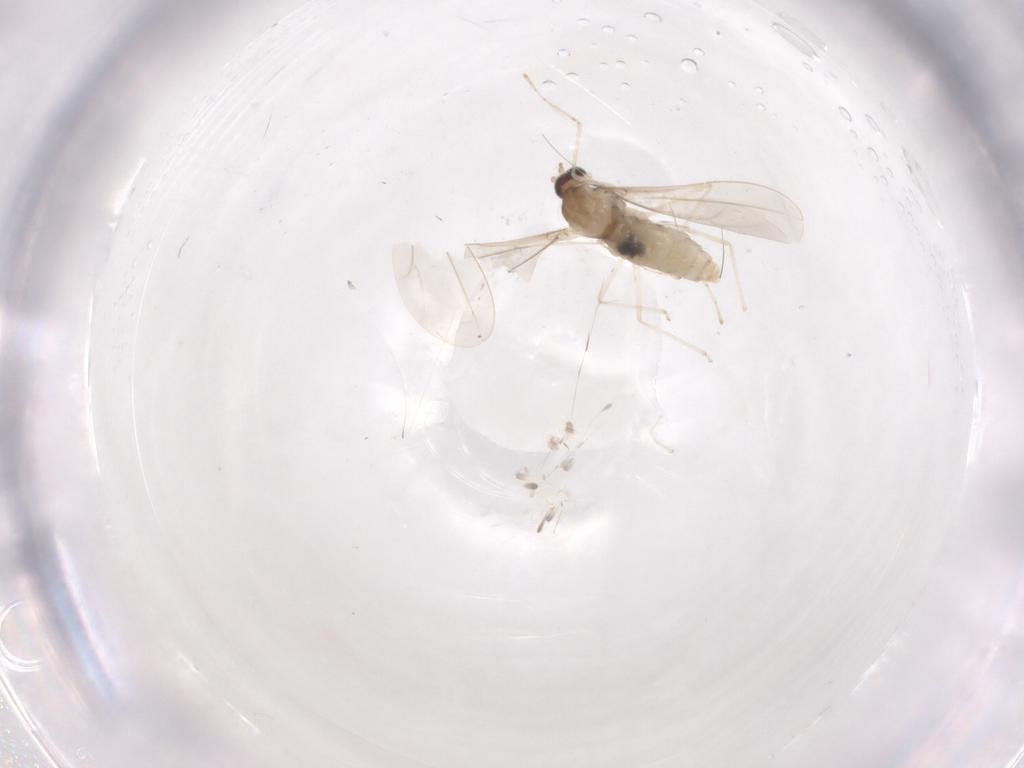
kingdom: Animalia
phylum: Arthropoda
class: Insecta
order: Diptera
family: Keroplatidae
